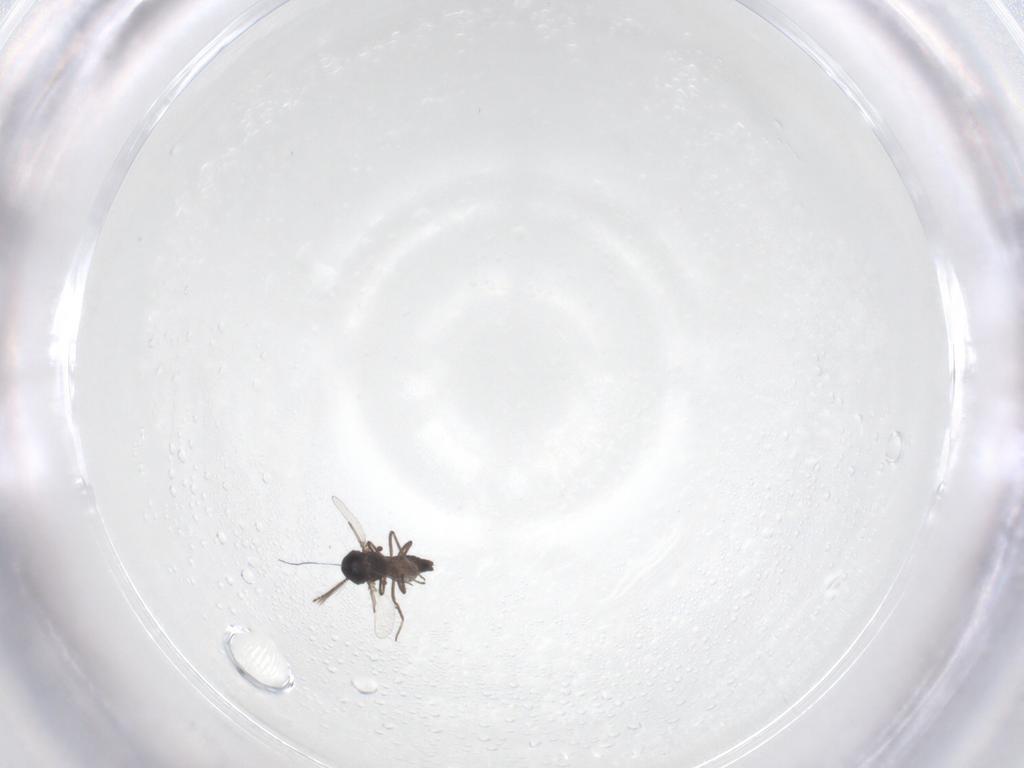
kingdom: Animalia
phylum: Arthropoda
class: Insecta
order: Diptera
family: Ceratopogonidae
